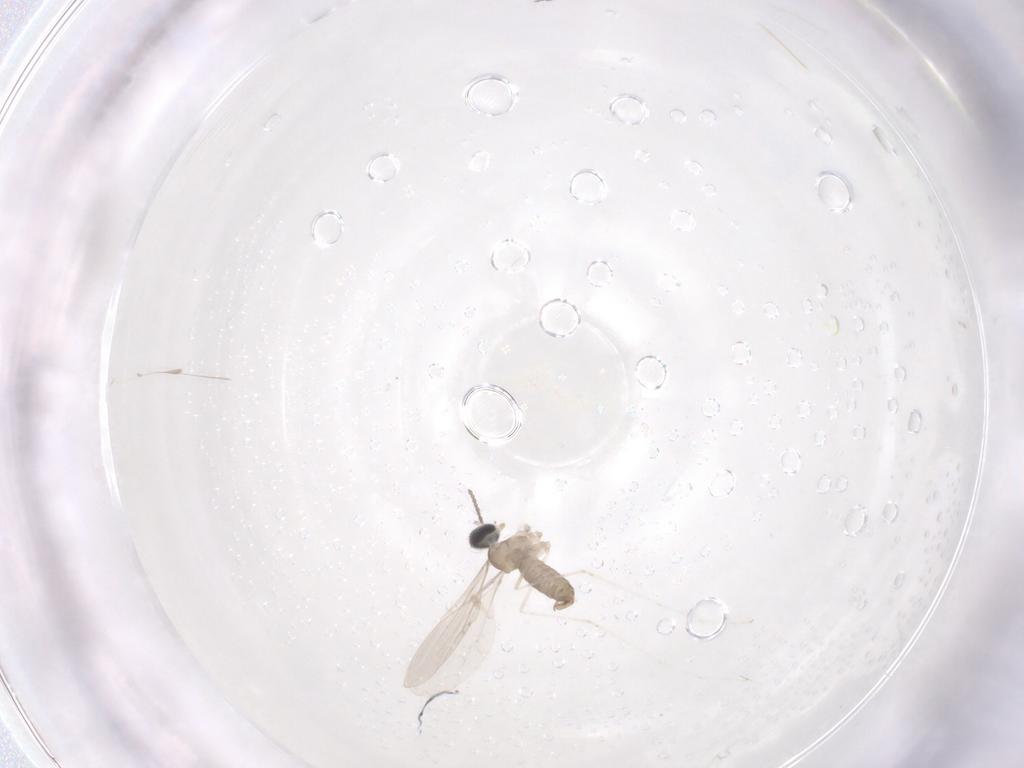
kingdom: Animalia
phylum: Arthropoda
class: Insecta
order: Diptera
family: Cecidomyiidae
